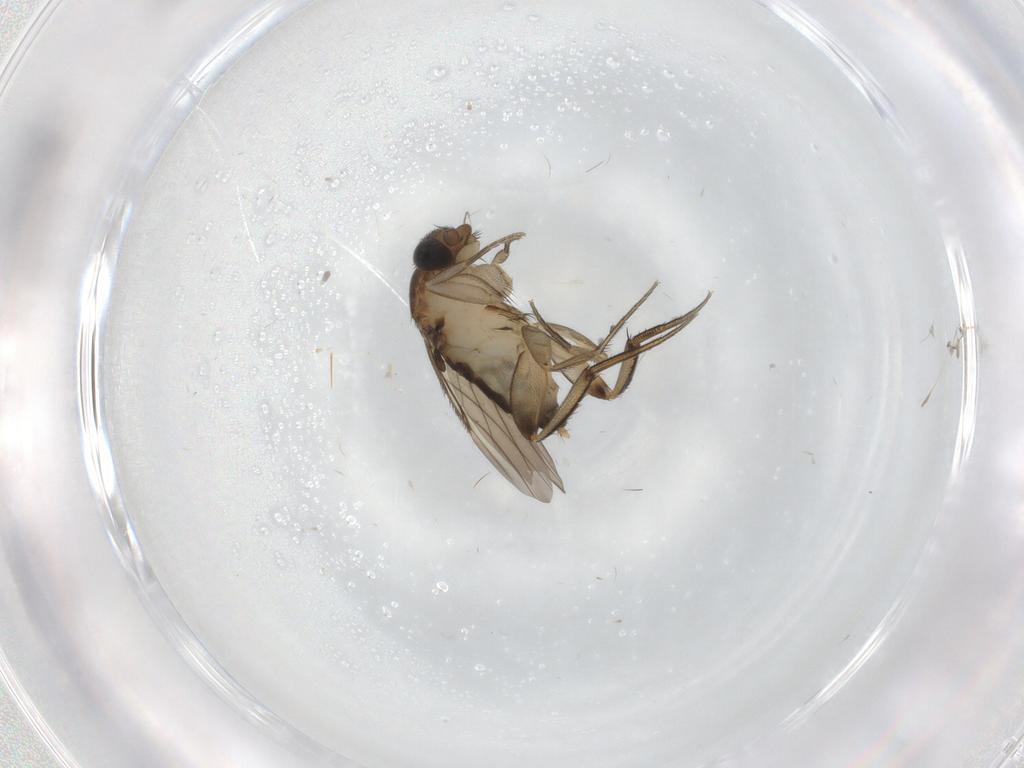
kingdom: Animalia
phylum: Arthropoda
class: Insecta
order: Diptera
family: Phoridae
